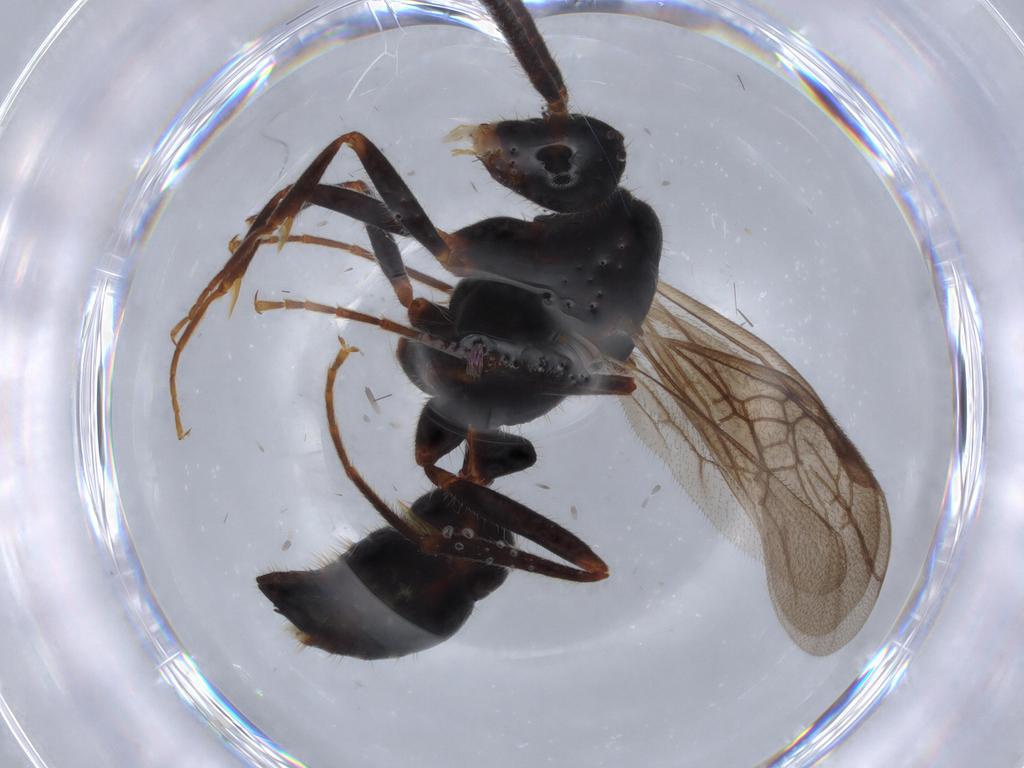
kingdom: Animalia
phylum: Arthropoda
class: Insecta
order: Hymenoptera
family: Formicidae
